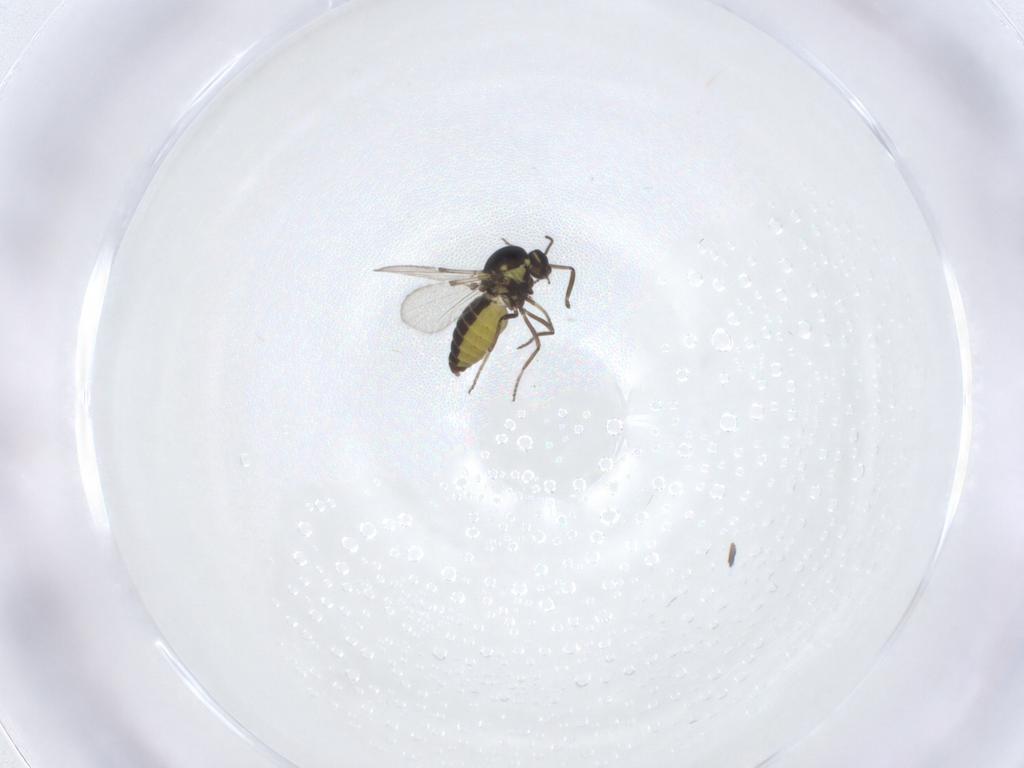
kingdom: Animalia
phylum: Arthropoda
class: Insecta
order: Diptera
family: Ceratopogonidae
